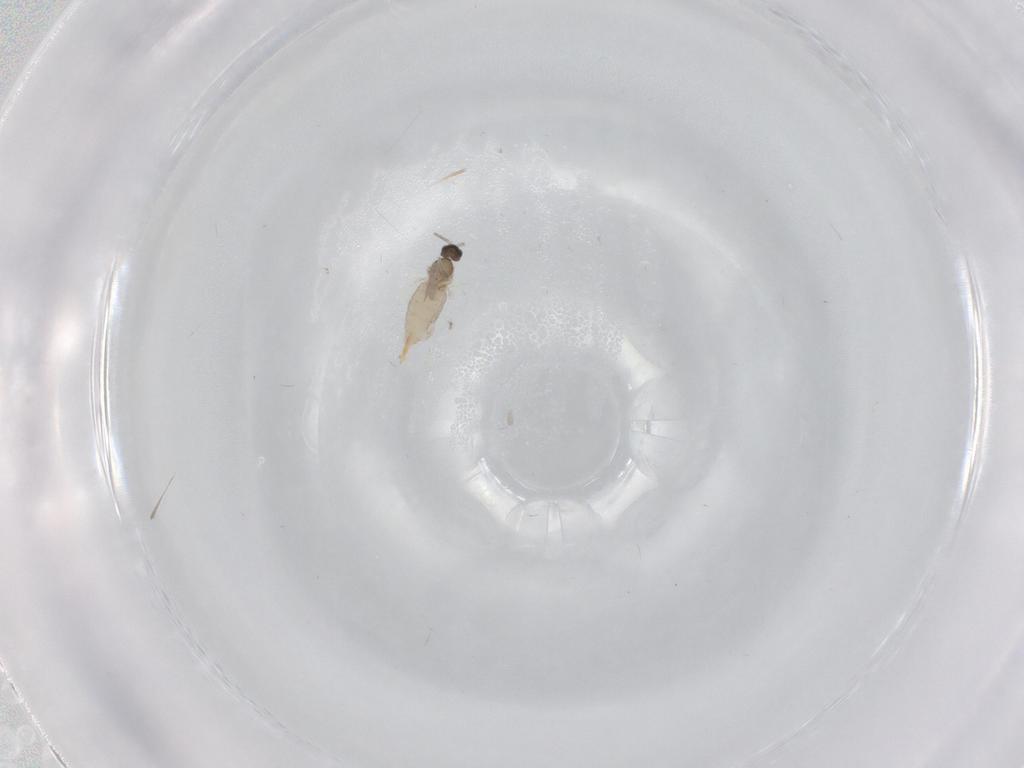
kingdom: Animalia
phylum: Arthropoda
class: Insecta
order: Diptera
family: Cecidomyiidae
